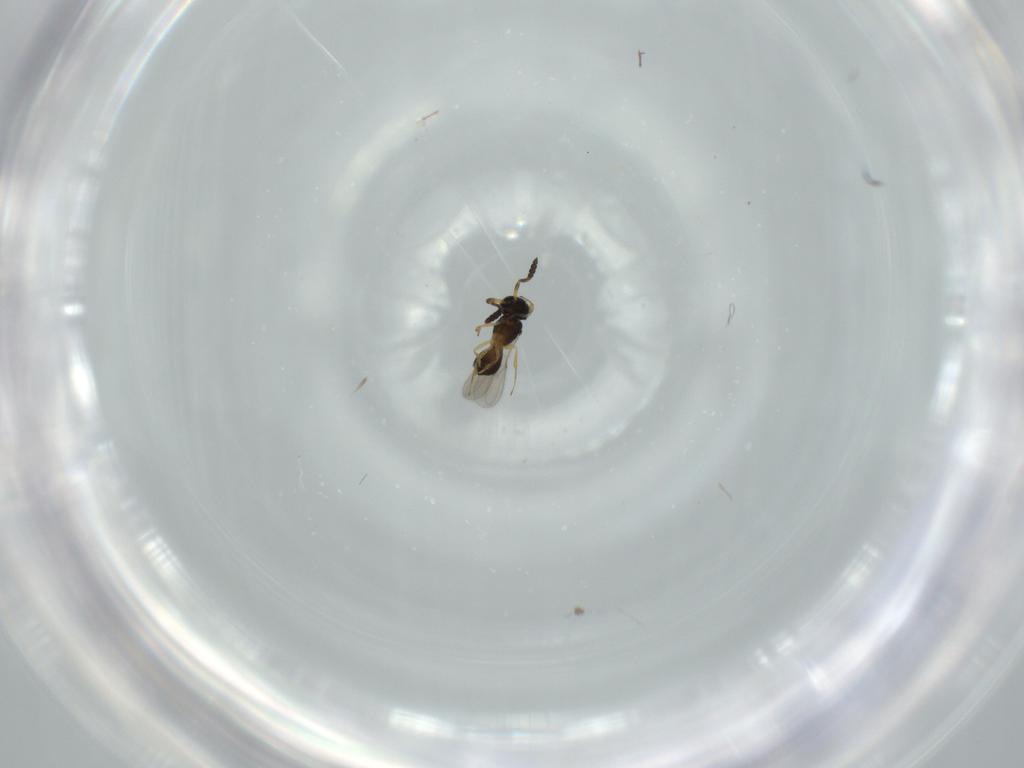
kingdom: Animalia
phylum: Arthropoda
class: Insecta
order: Hymenoptera
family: Scelionidae
